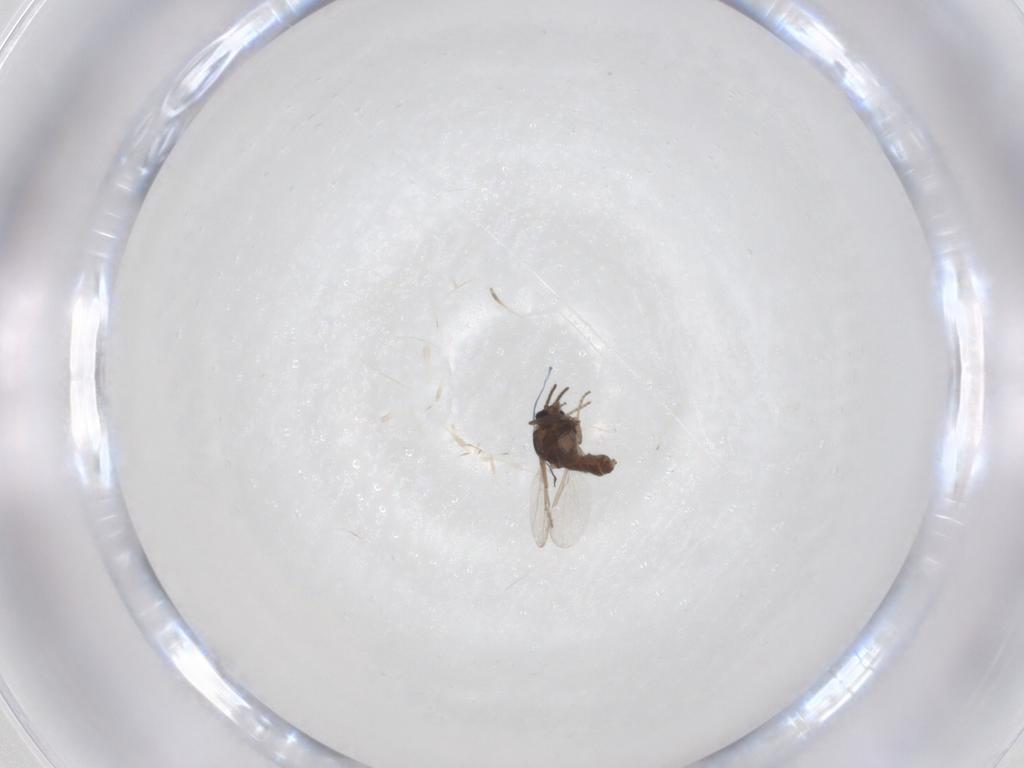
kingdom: Animalia
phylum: Arthropoda
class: Insecta
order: Diptera
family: Ceratopogonidae
